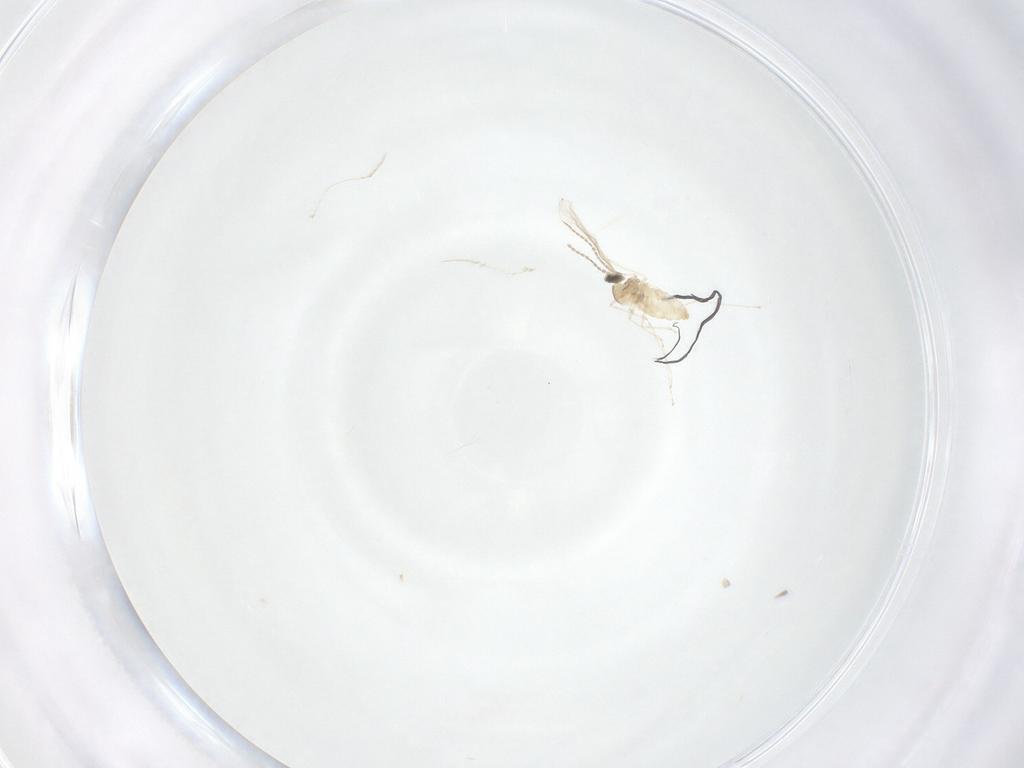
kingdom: Animalia
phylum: Arthropoda
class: Insecta
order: Diptera
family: Cecidomyiidae
